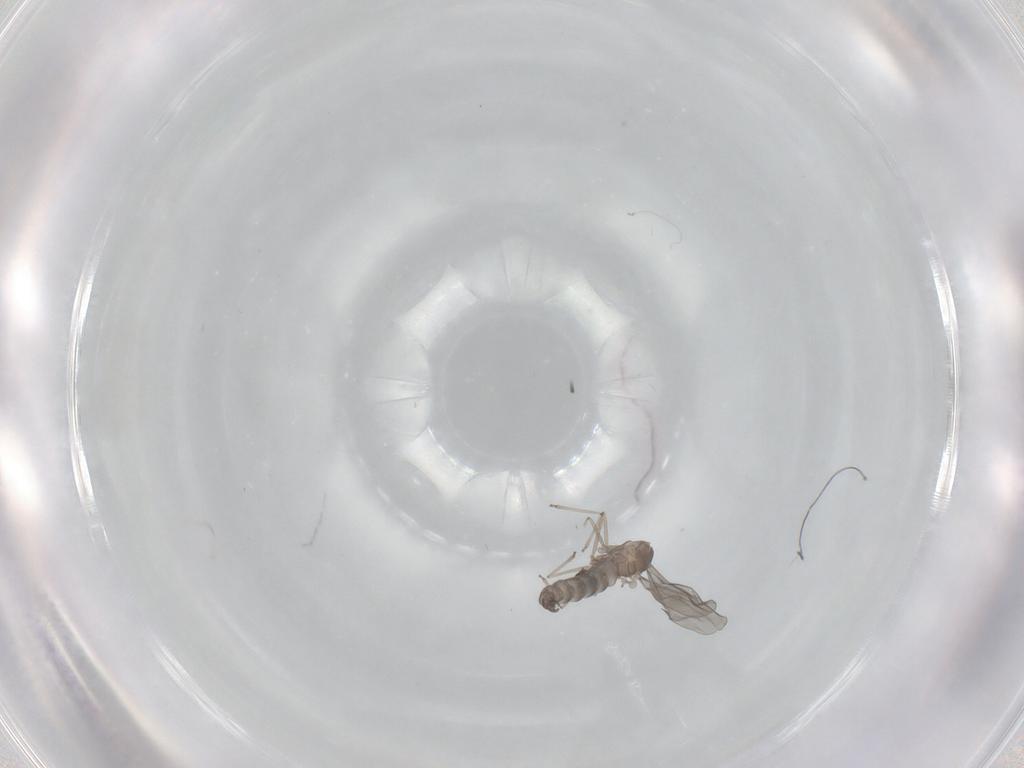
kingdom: Animalia
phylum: Arthropoda
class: Insecta
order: Diptera
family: Cecidomyiidae
